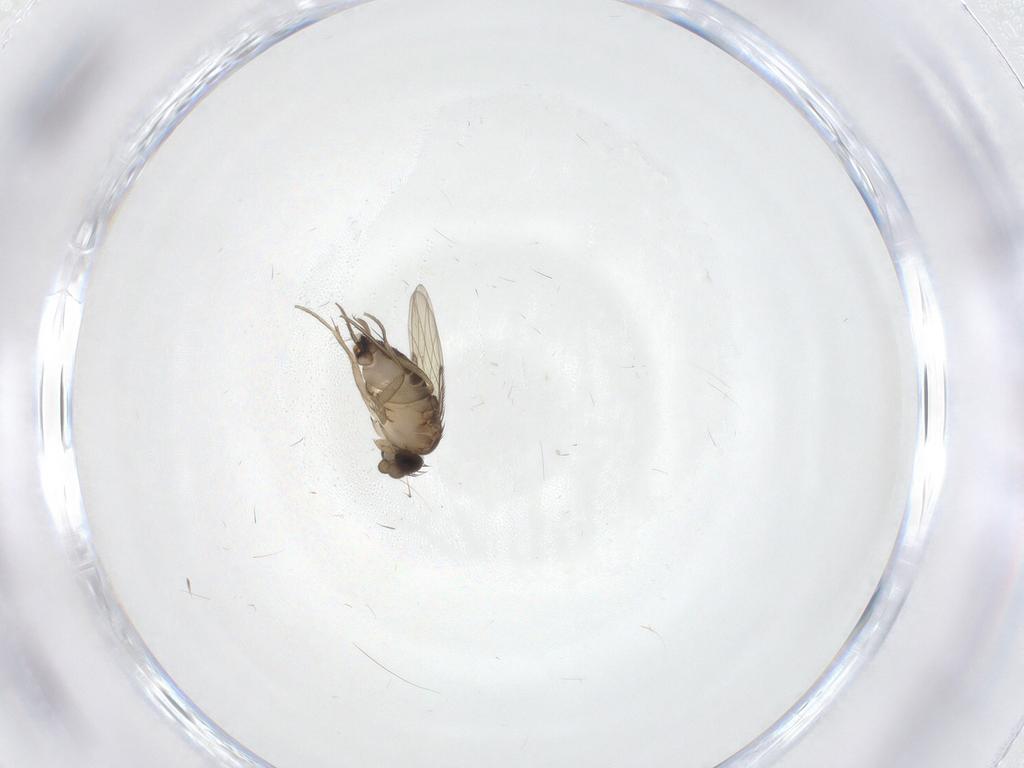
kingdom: Animalia
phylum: Arthropoda
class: Insecta
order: Diptera
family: Phoridae
